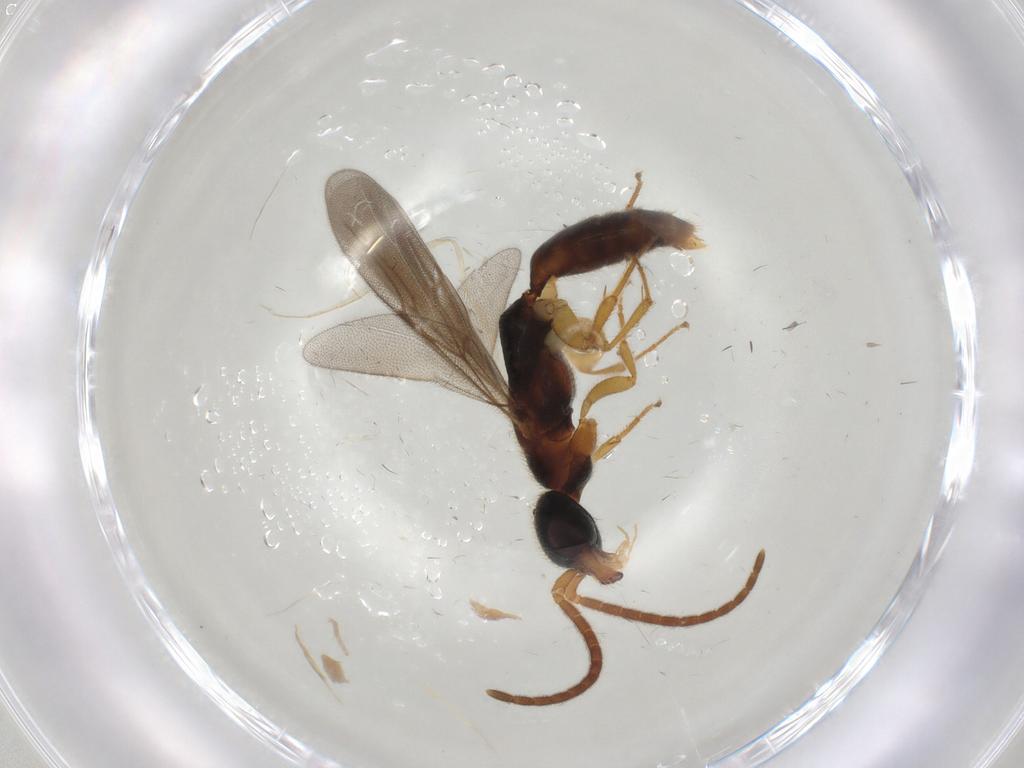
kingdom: Animalia
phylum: Arthropoda
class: Insecta
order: Hymenoptera
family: Bethylidae
